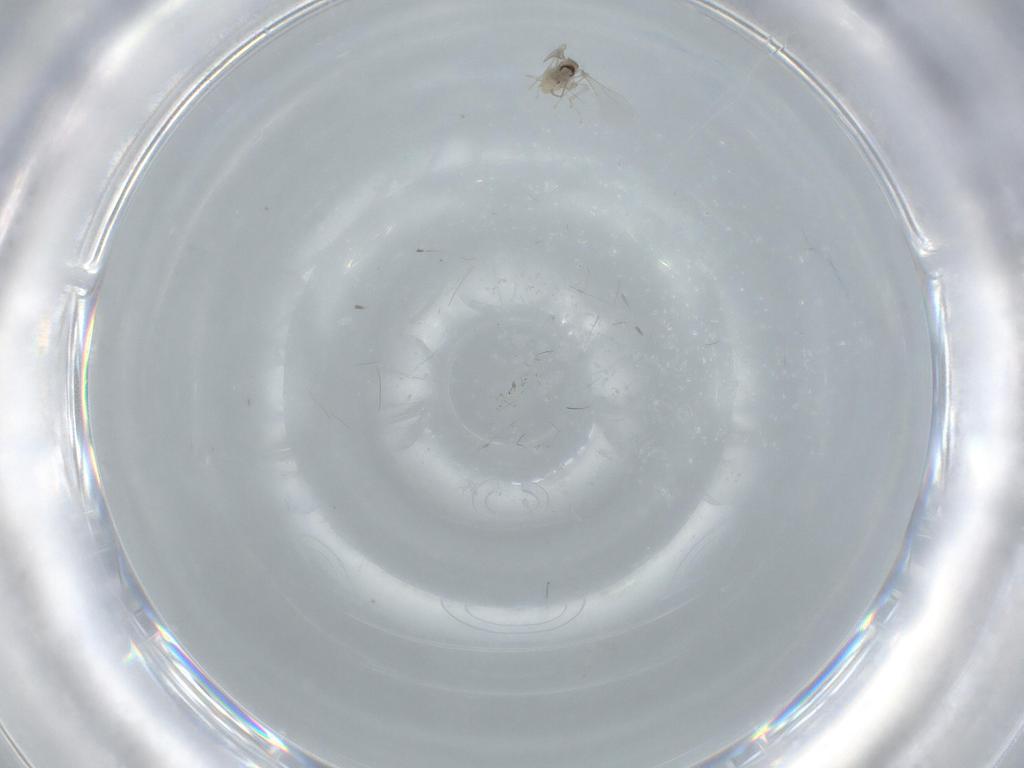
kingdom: Animalia
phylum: Arthropoda
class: Insecta
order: Diptera
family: Cecidomyiidae
